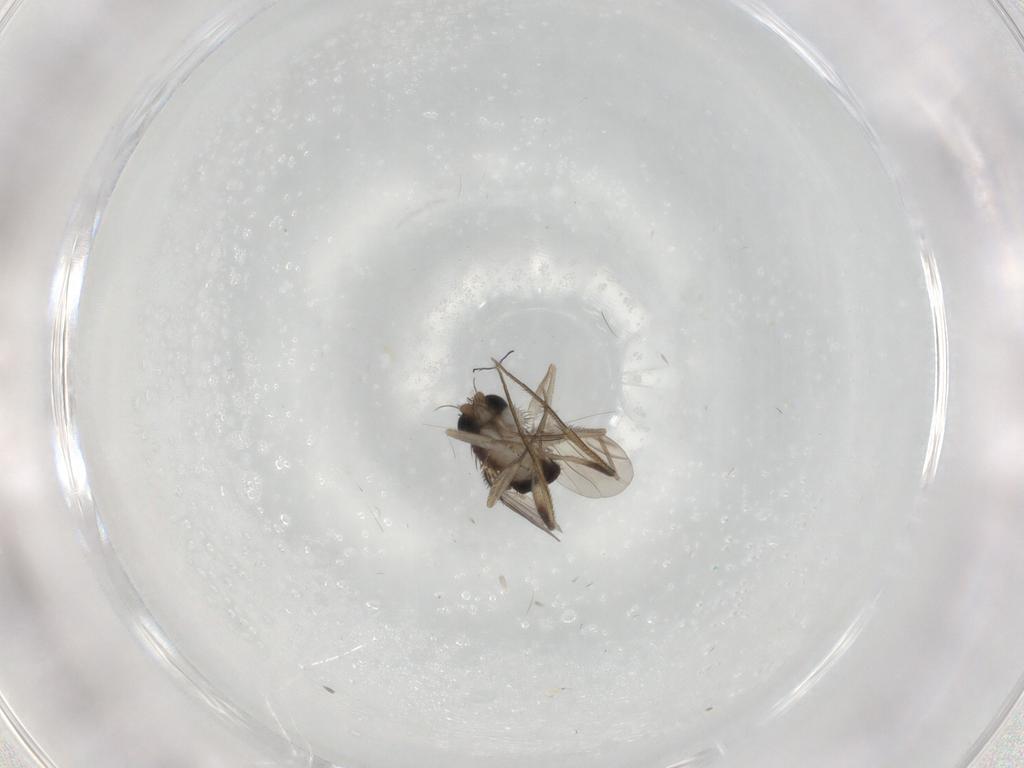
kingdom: Animalia
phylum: Arthropoda
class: Insecta
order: Diptera
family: Phoridae
